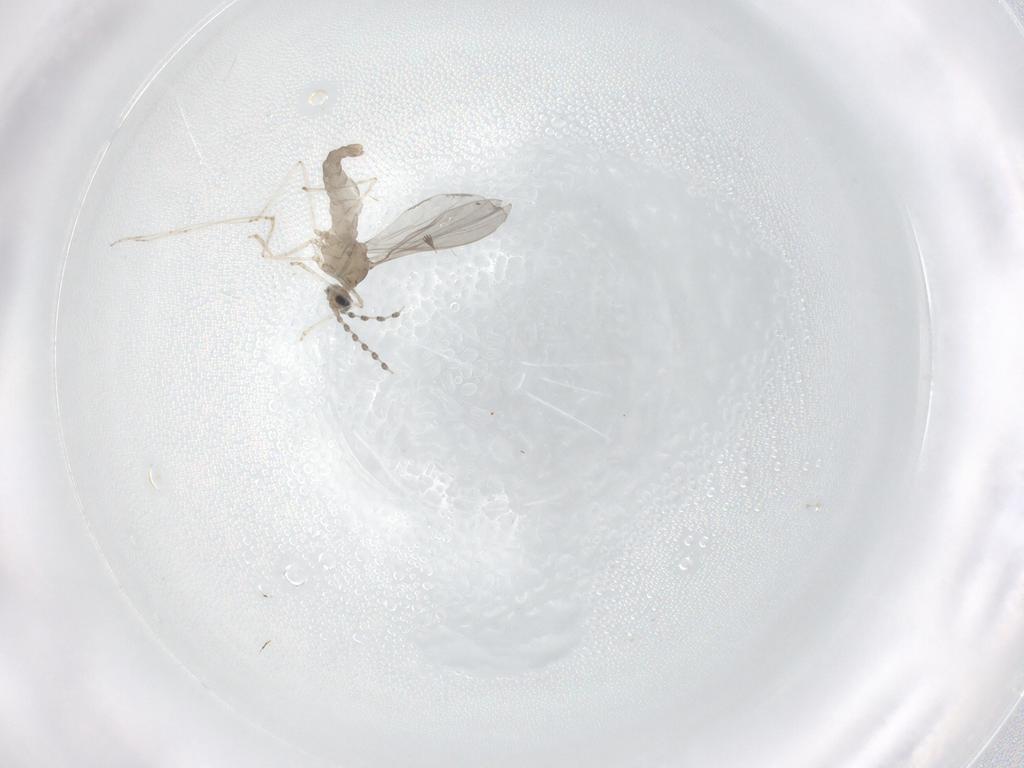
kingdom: Animalia
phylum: Arthropoda
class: Insecta
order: Diptera
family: Cecidomyiidae
